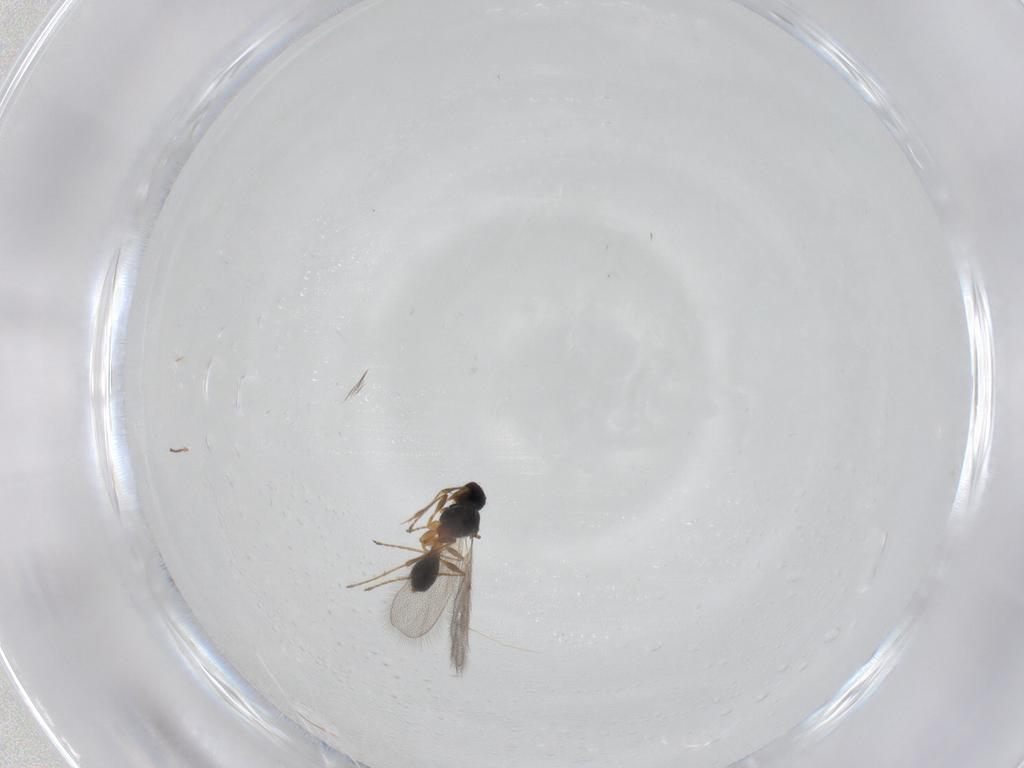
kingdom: Animalia
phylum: Arthropoda
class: Insecta
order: Hymenoptera
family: Diapriidae
